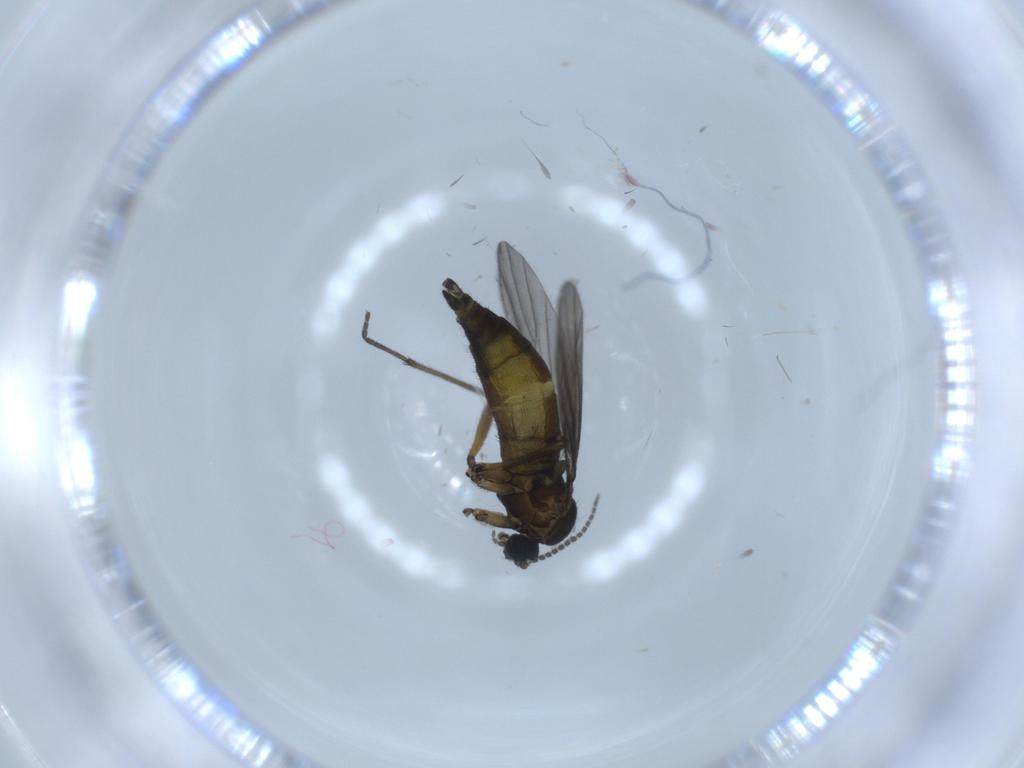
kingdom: Animalia
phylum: Arthropoda
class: Insecta
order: Diptera
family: Sciaridae
